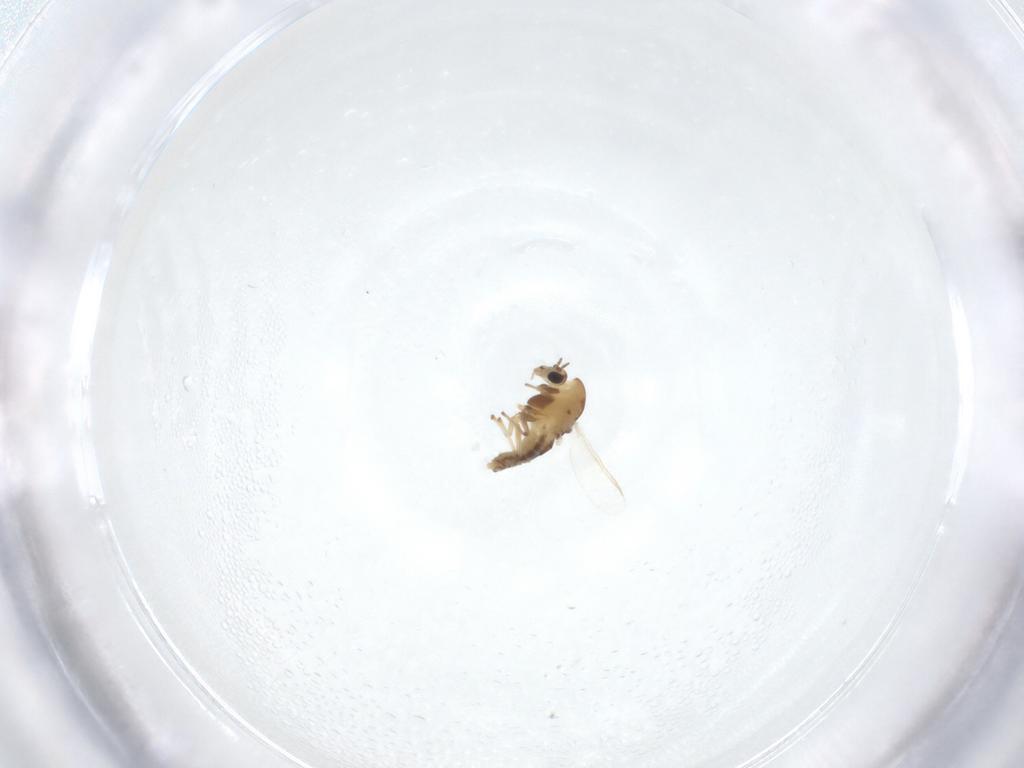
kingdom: Animalia
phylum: Arthropoda
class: Insecta
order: Diptera
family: Chironomidae
